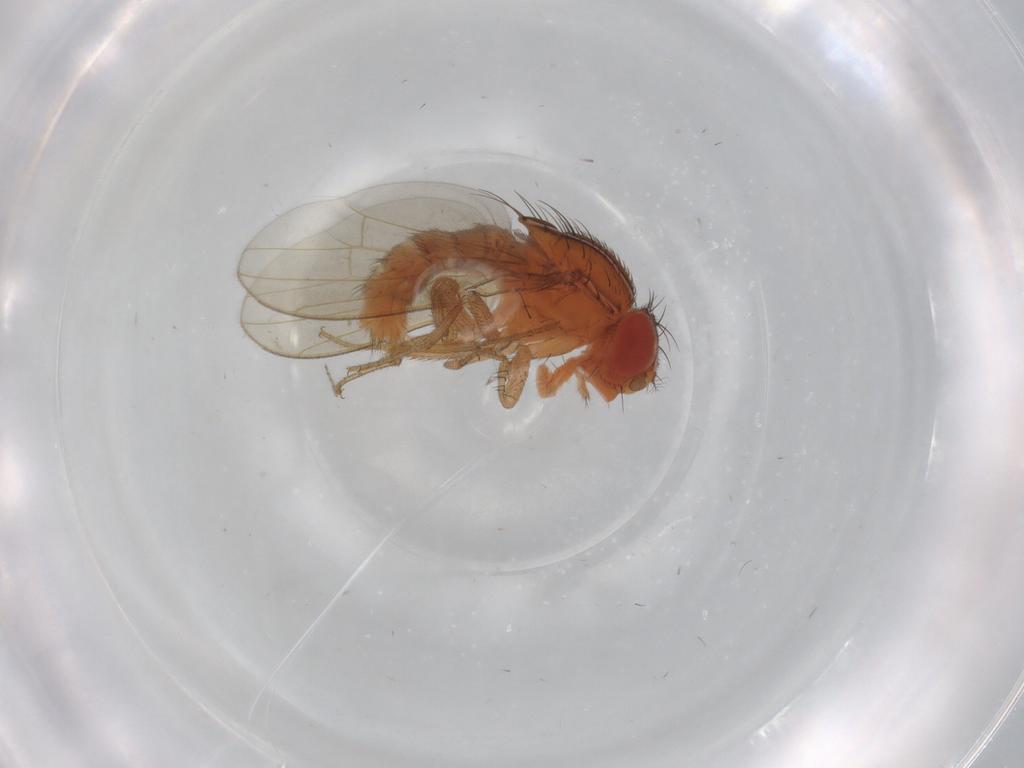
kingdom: Animalia
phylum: Arthropoda
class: Insecta
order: Diptera
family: Drosophilidae
